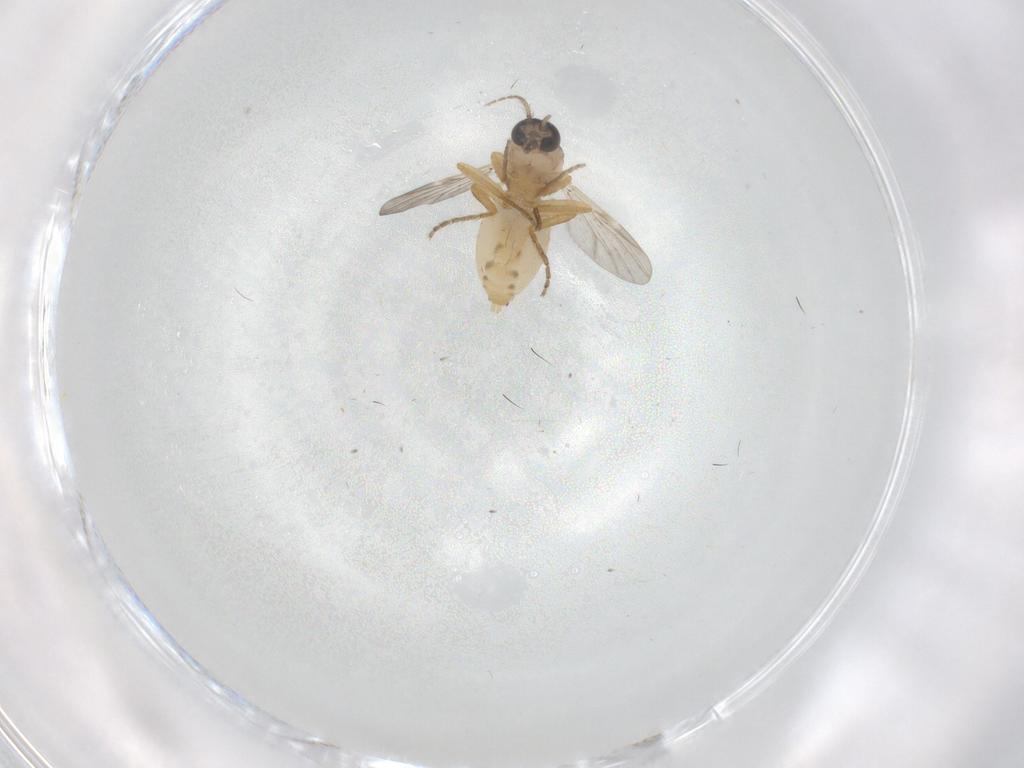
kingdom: Animalia
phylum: Arthropoda
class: Insecta
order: Diptera
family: Ceratopogonidae
